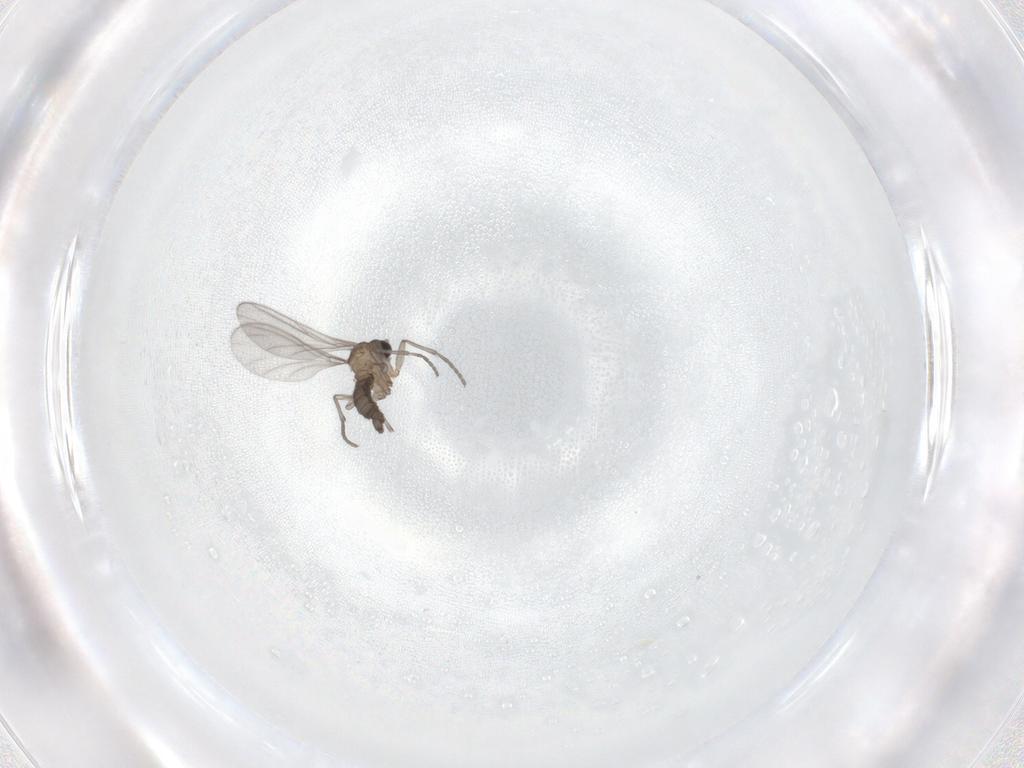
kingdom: Animalia
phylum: Arthropoda
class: Insecta
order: Diptera
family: Sciaridae
